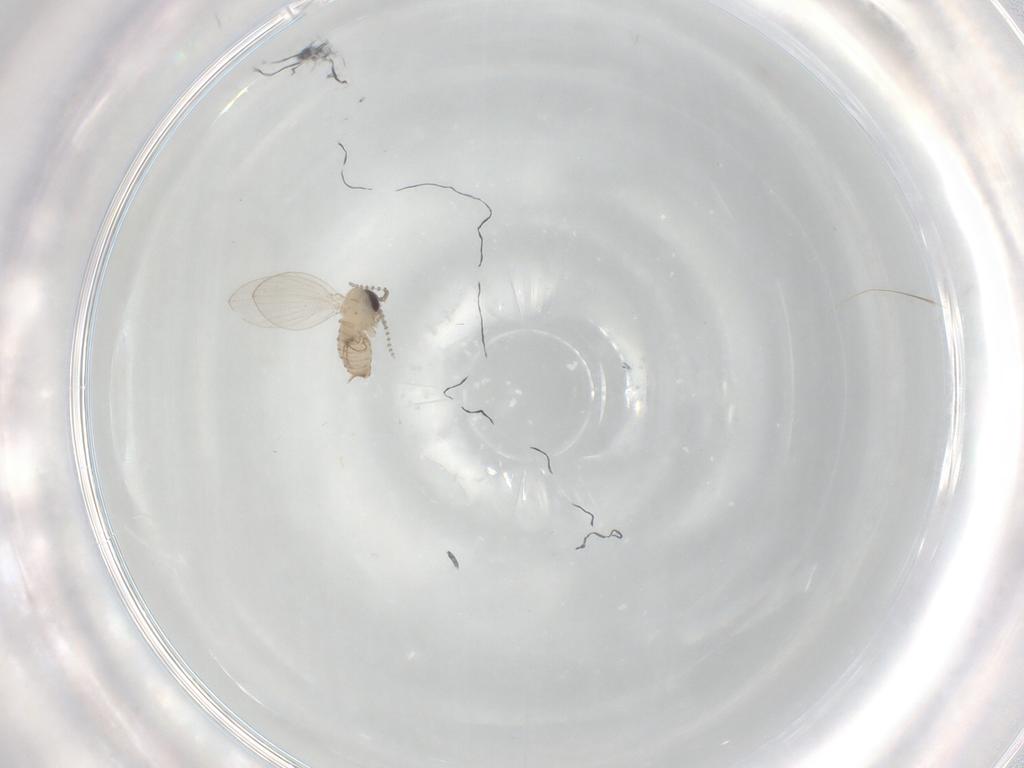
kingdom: Animalia
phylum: Arthropoda
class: Insecta
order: Diptera
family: Psychodidae
